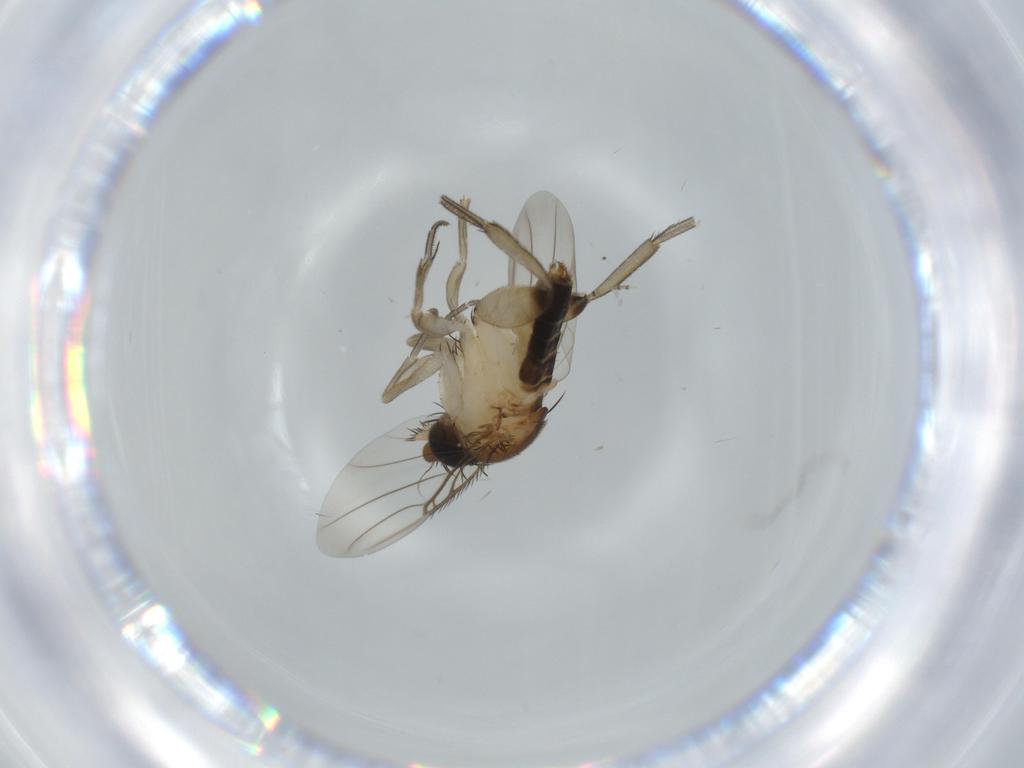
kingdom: Animalia
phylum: Arthropoda
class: Insecta
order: Diptera
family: Phoridae
